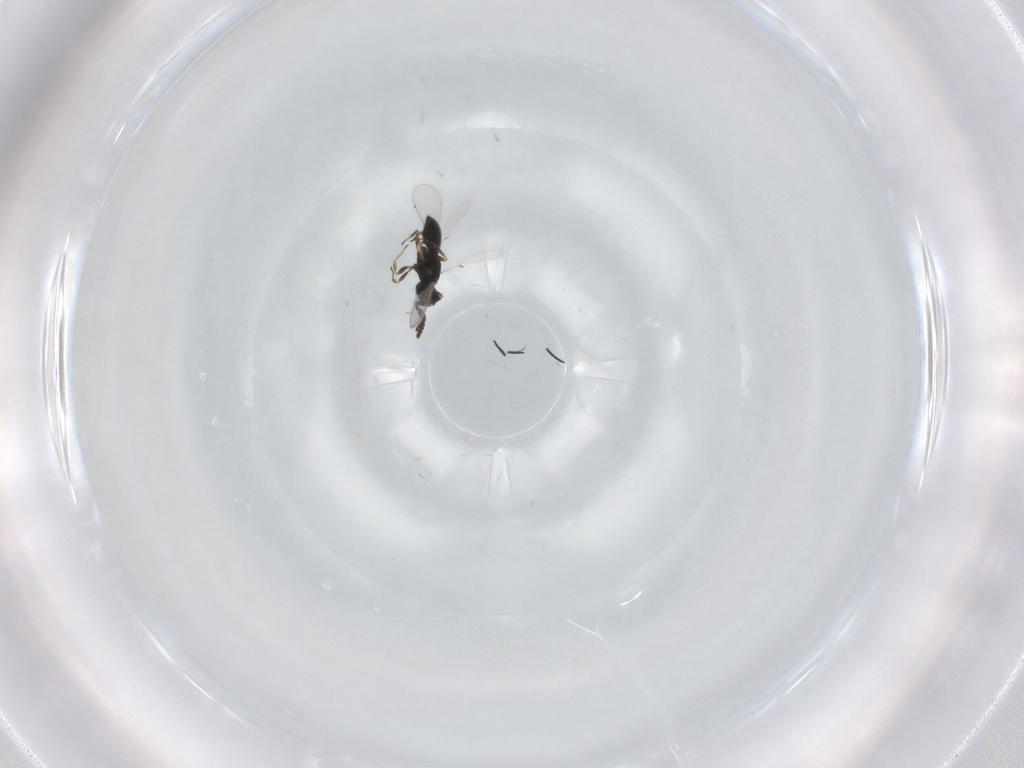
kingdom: Animalia
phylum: Arthropoda
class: Insecta
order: Hymenoptera
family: Scelionidae
